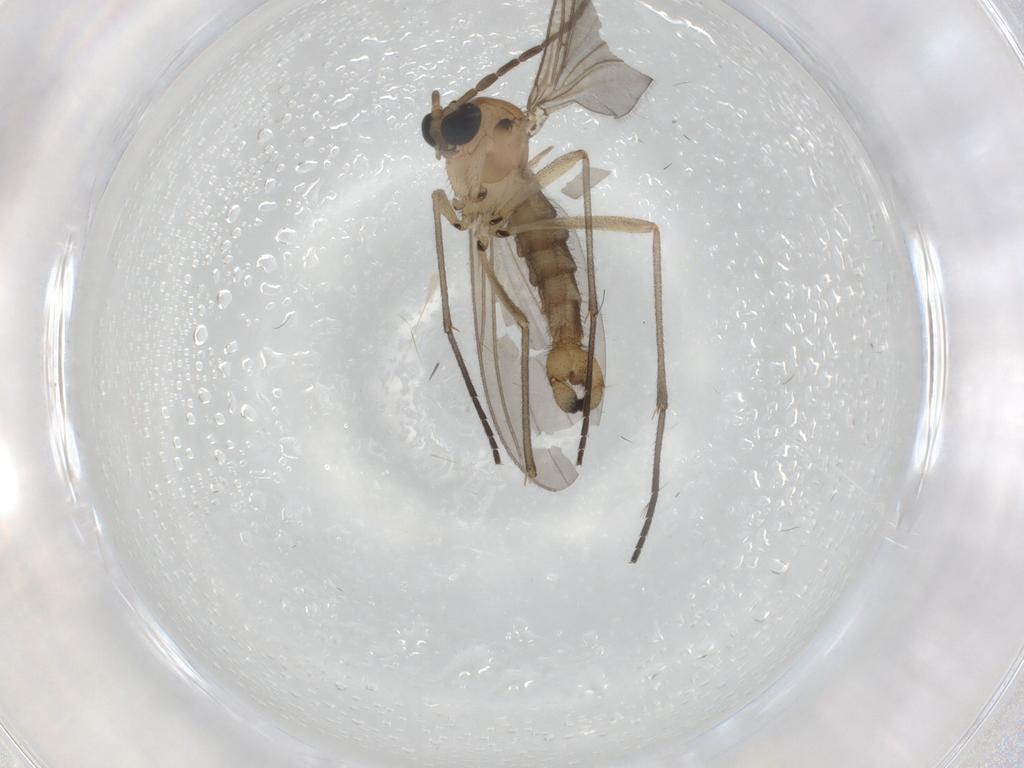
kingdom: Animalia
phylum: Arthropoda
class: Insecta
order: Diptera
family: Sciaridae
